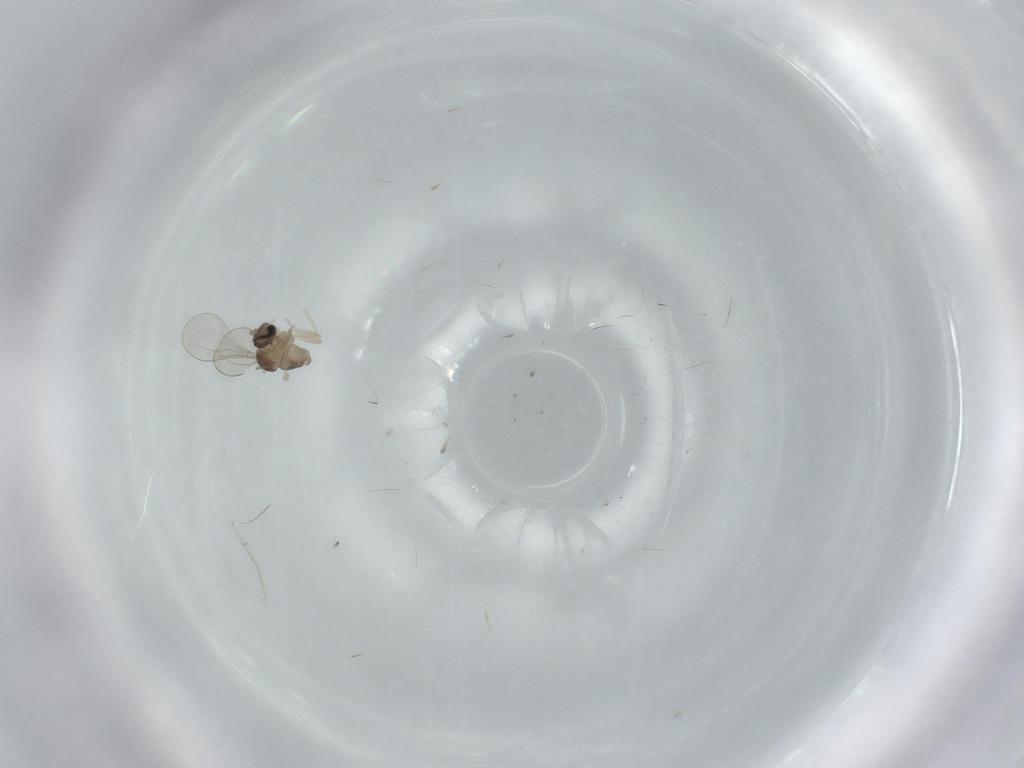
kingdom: Animalia
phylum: Arthropoda
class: Insecta
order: Diptera
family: Cecidomyiidae
